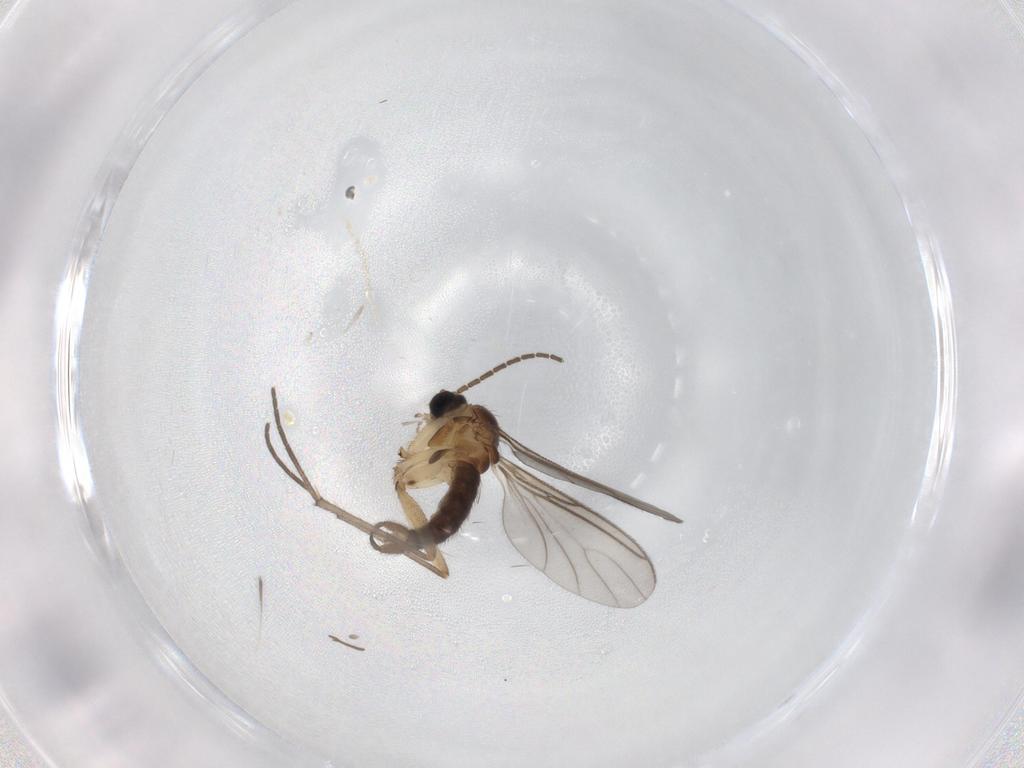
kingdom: Animalia
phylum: Arthropoda
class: Insecta
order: Diptera
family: Sciaridae
